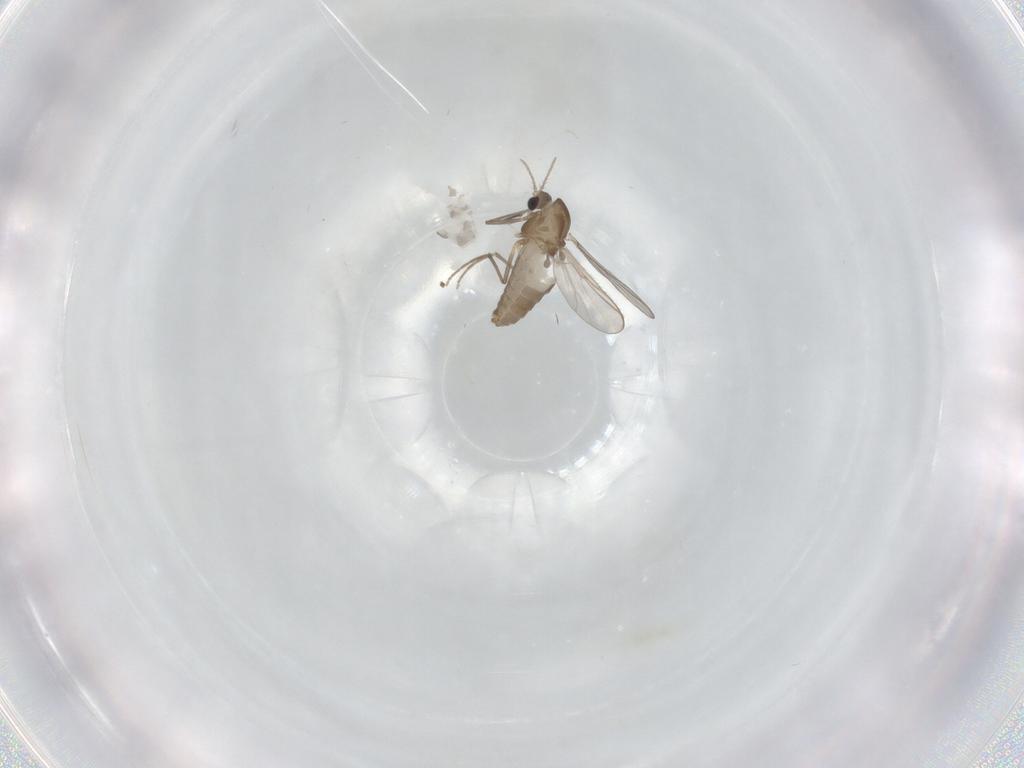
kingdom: Animalia
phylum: Arthropoda
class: Insecta
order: Diptera
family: Chironomidae
